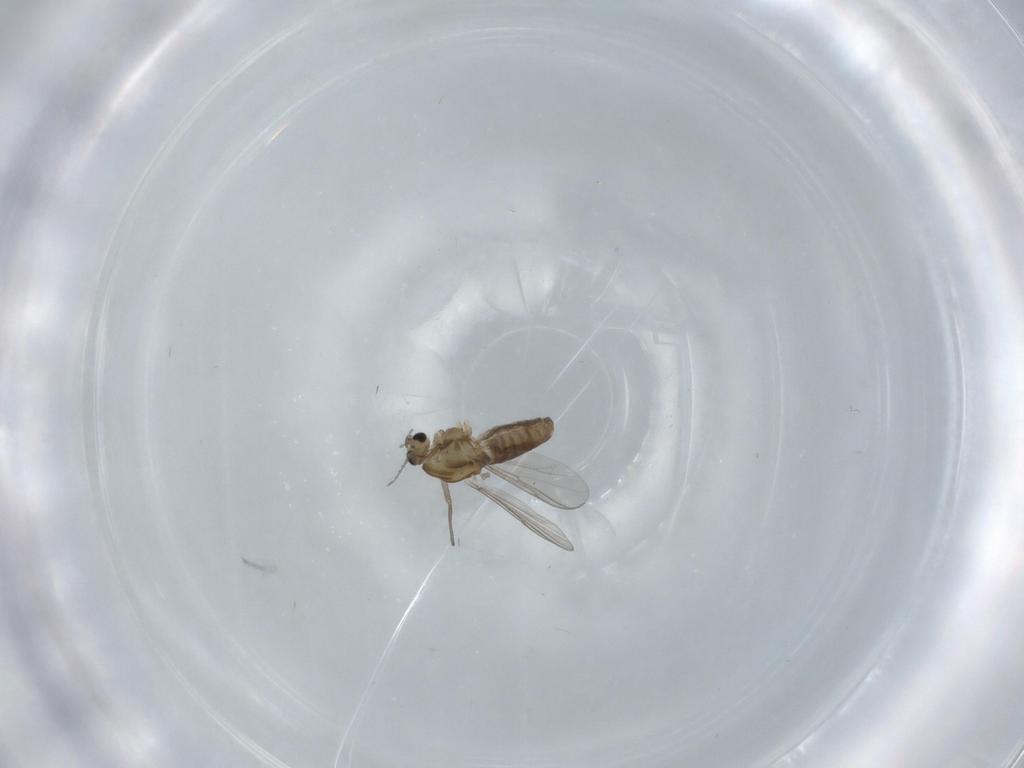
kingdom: Animalia
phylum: Arthropoda
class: Insecta
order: Diptera
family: Chironomidae
